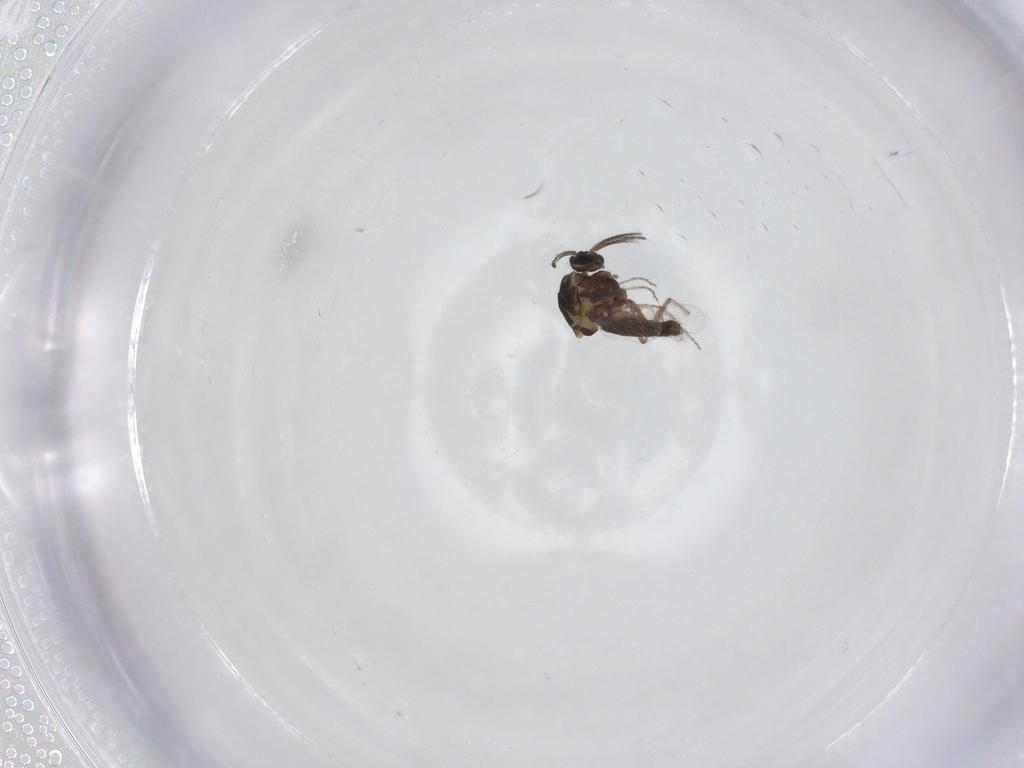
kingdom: Animalia
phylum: Arthropoda
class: Insecta
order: Diptera
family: Ceratopogonidae
